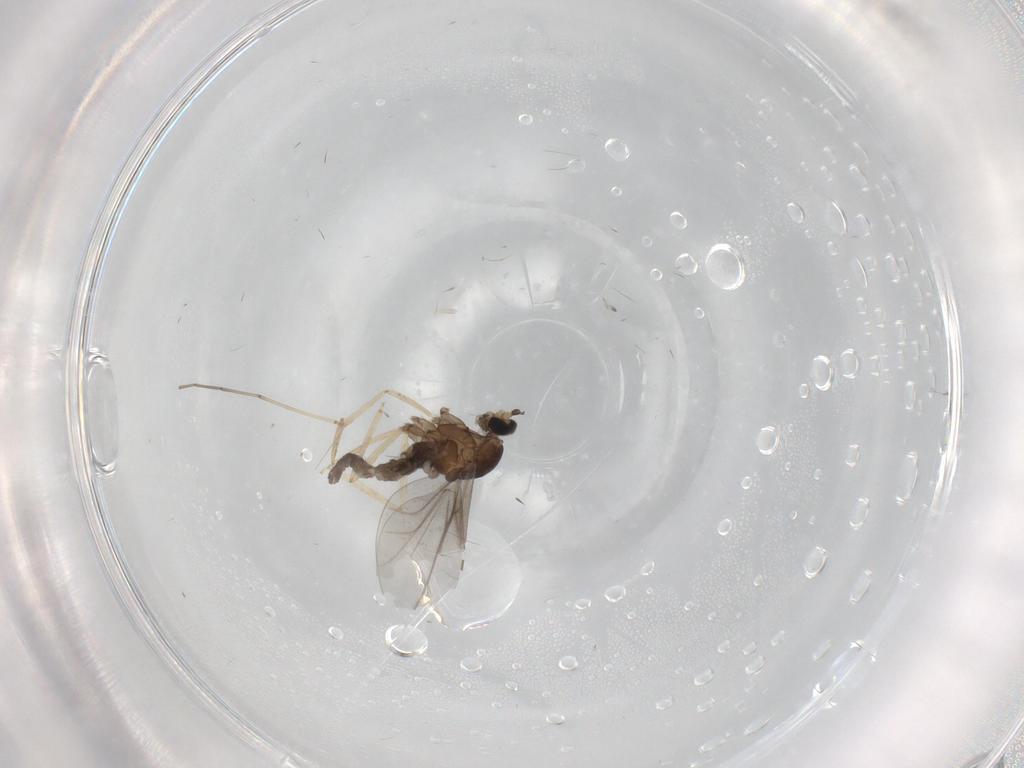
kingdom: Animalia
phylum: Arthropoda
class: Insecta
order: Diptera
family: Cecidomyiidae
